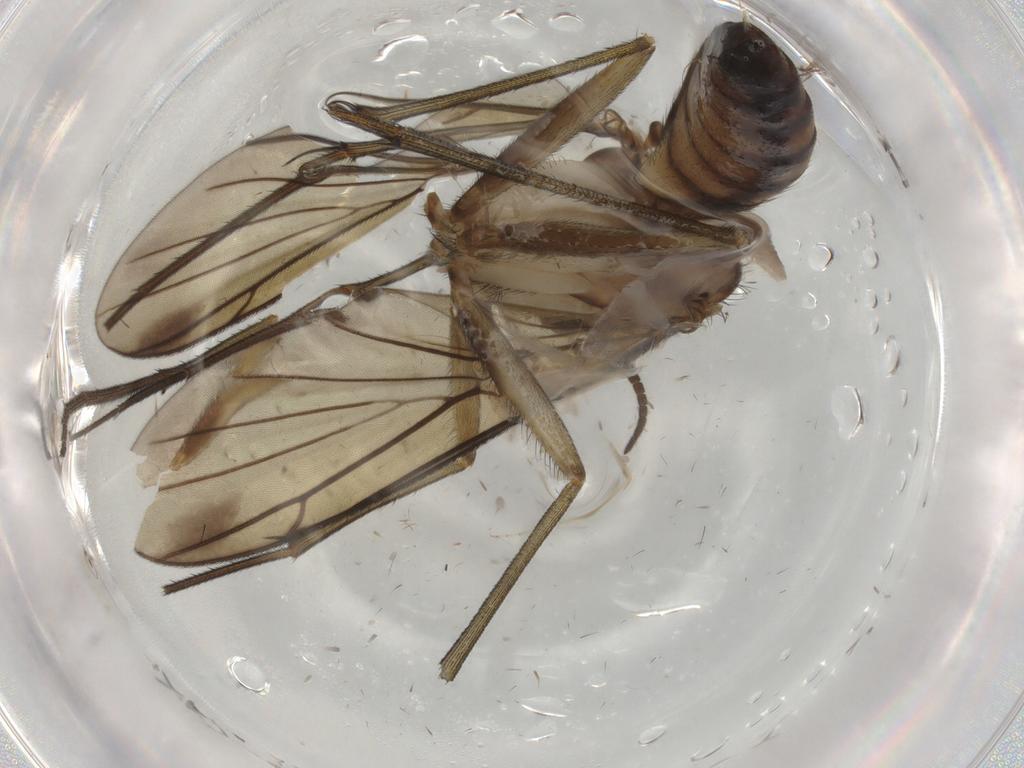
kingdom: Animalia
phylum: Arthropoda
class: Insecta
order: Diptera
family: Keroplatidae
